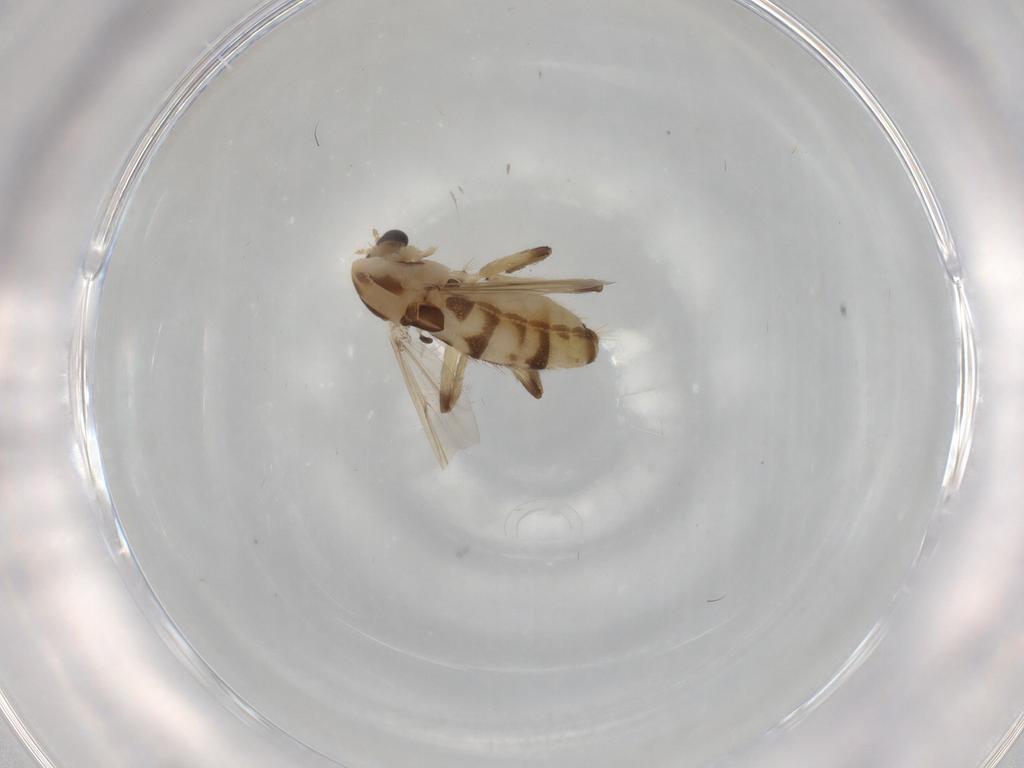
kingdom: Animalia
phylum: Arthropoda
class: Insecta
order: Diptera
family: Chironomidae
